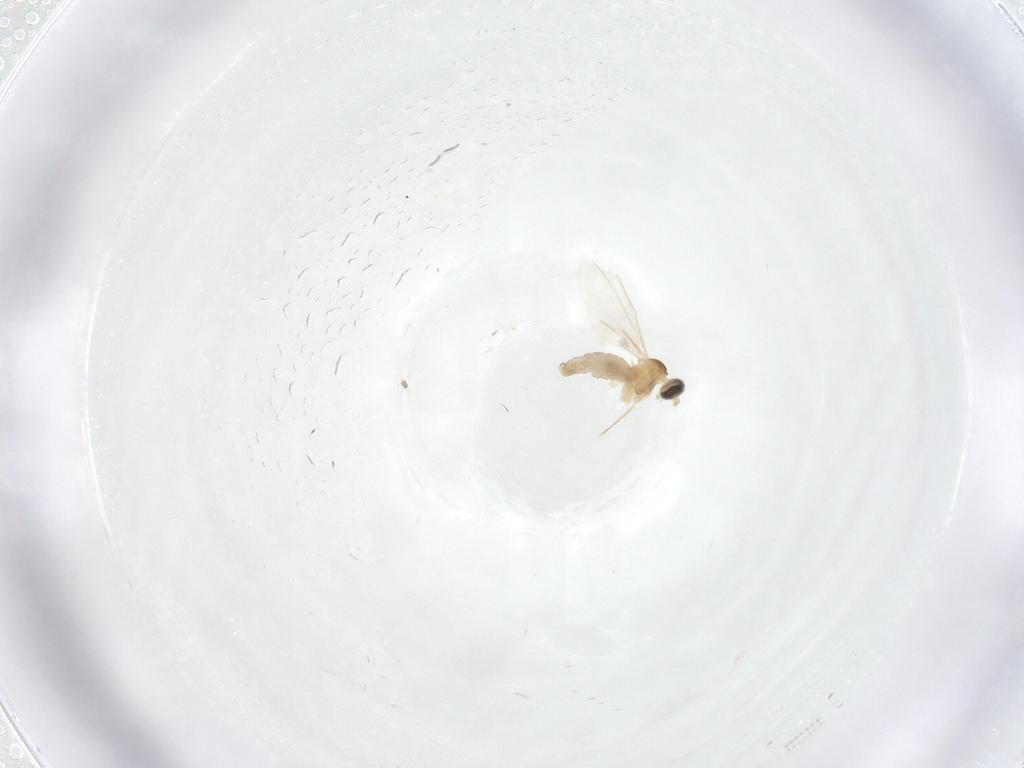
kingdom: Animalia
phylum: Arthropoda
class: Insecta
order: Diptera
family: Cecidomyiidae
